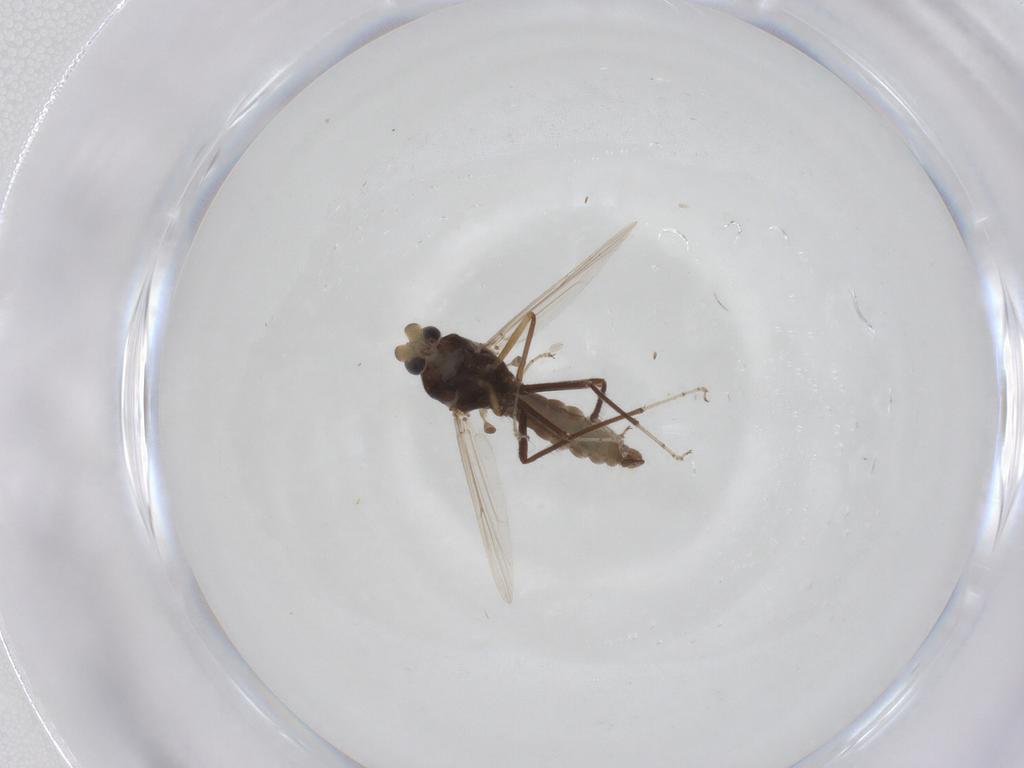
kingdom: Animalia
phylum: Arthropoda
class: Insecta
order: Diptera
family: Ceratopogonidae
